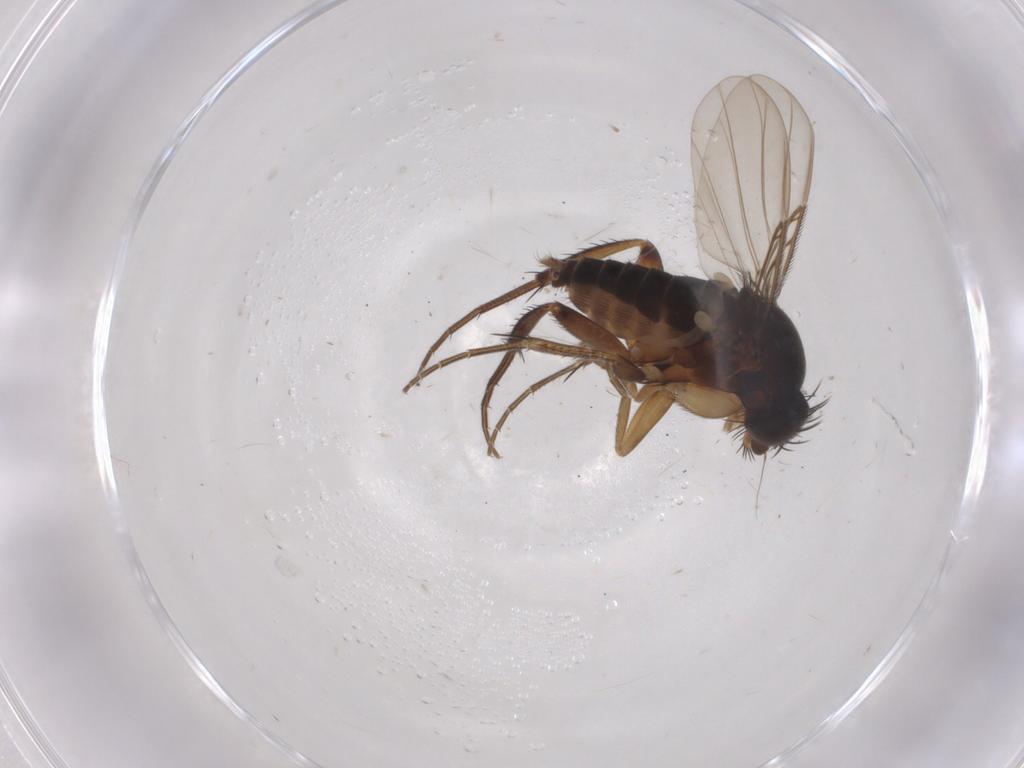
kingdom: Animalia
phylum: Arthropoda
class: Insecta
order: Diptera
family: Phoridae
